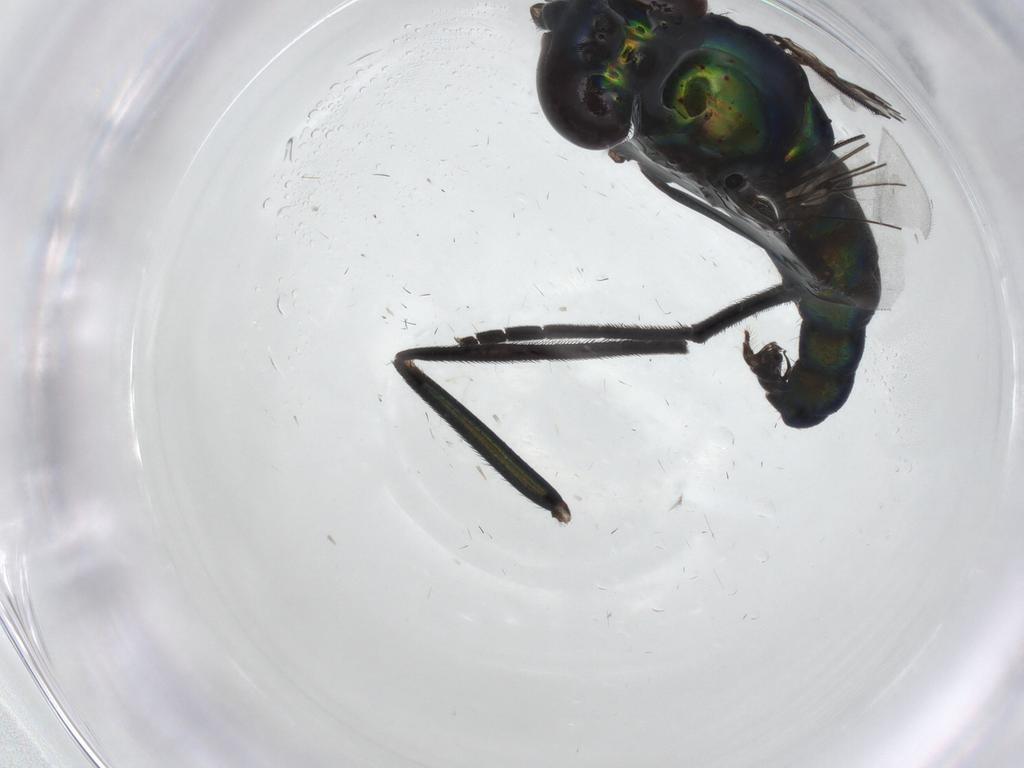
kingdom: Animalia
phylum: Arthropoda
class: Insecta
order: Diptera
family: Dolichopodidae
